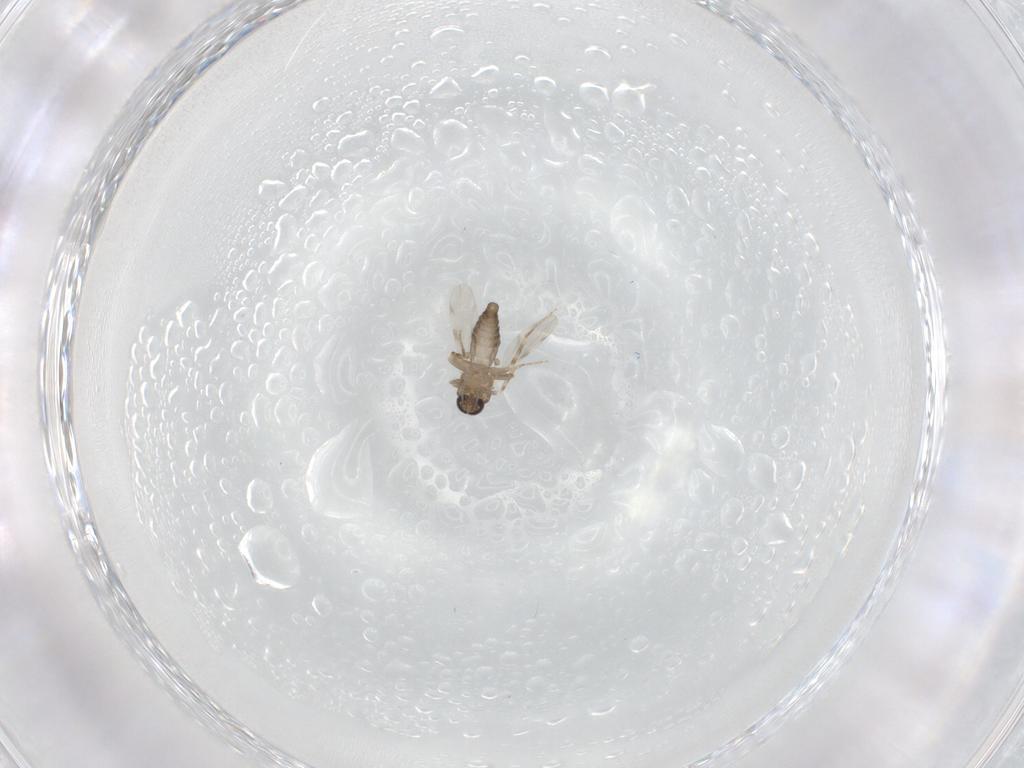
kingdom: Animalia
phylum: Arthropoda
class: Insecta
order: Diptera
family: Ceratopogonidae
